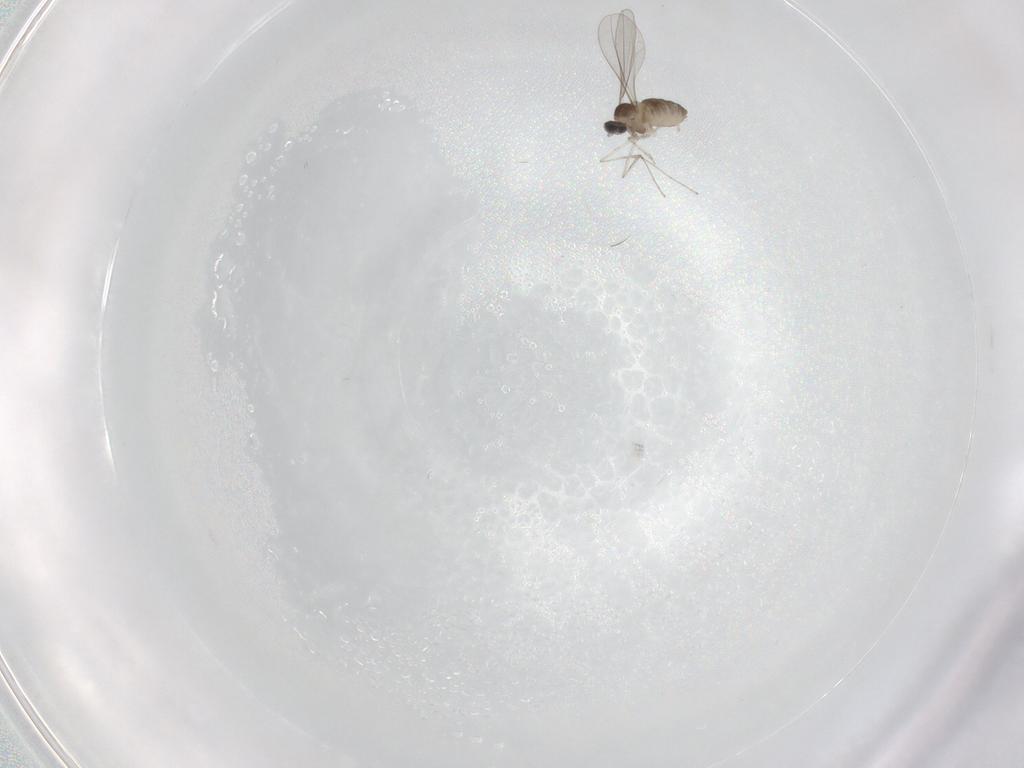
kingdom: Animalia
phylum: Arthropoda
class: Insecta
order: Diptera
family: Cecidomyiidae
